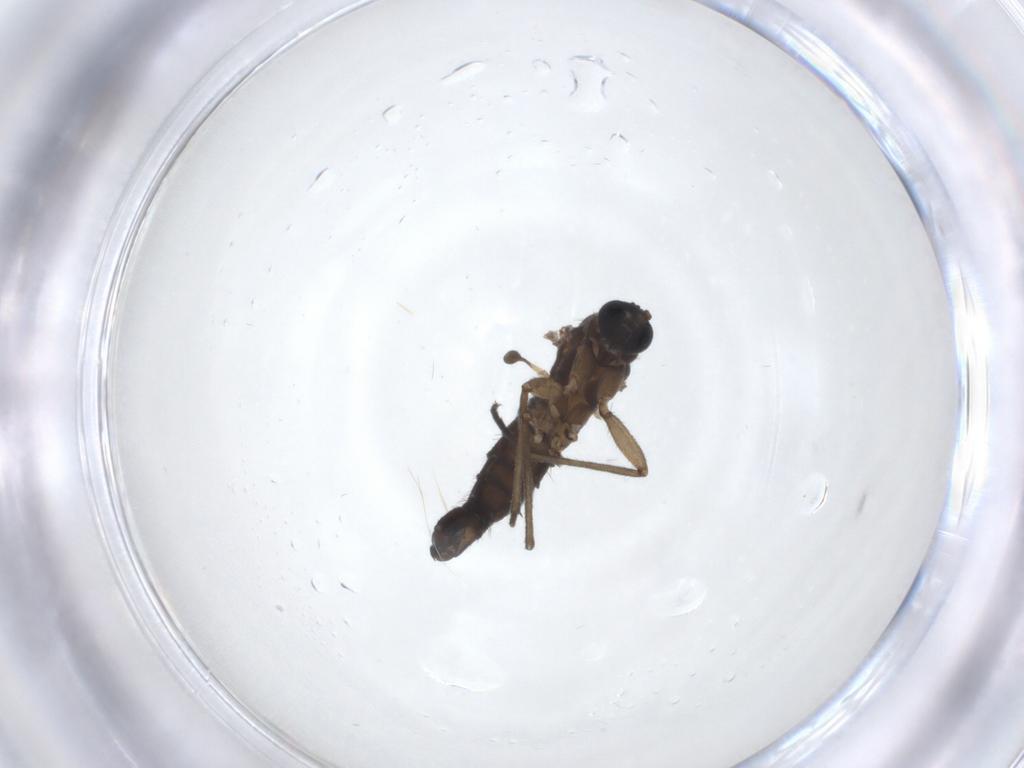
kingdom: Animalia
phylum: Arthropoda
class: Insecta
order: Diptera
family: Sciaridae
